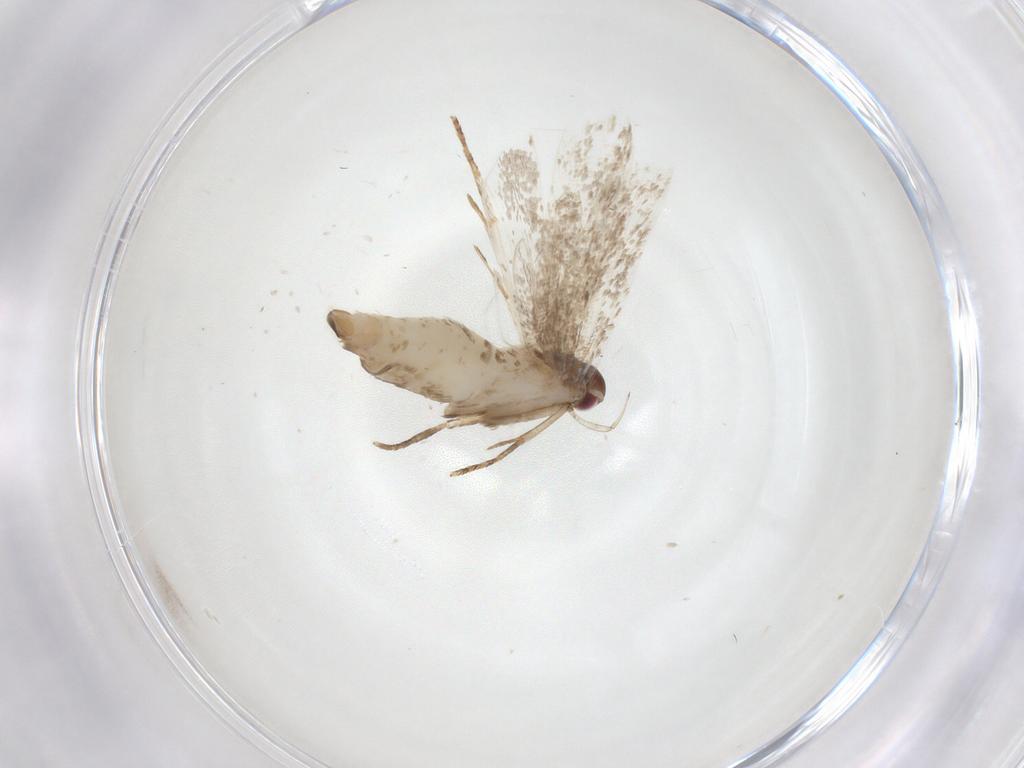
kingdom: Animalia
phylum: Arthropoda
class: Insecta
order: Lepidoptera
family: Gelechiidae
